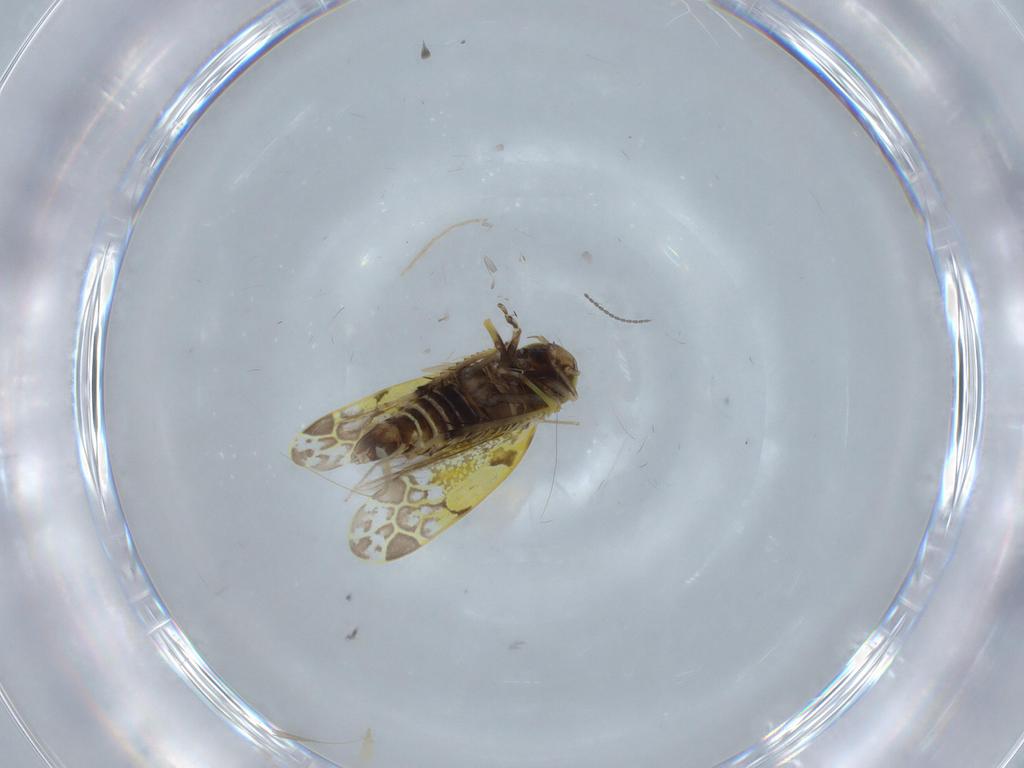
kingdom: Animalia
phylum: Arthropoda
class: Insecta
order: Hemiptera
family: Cicadellidae
